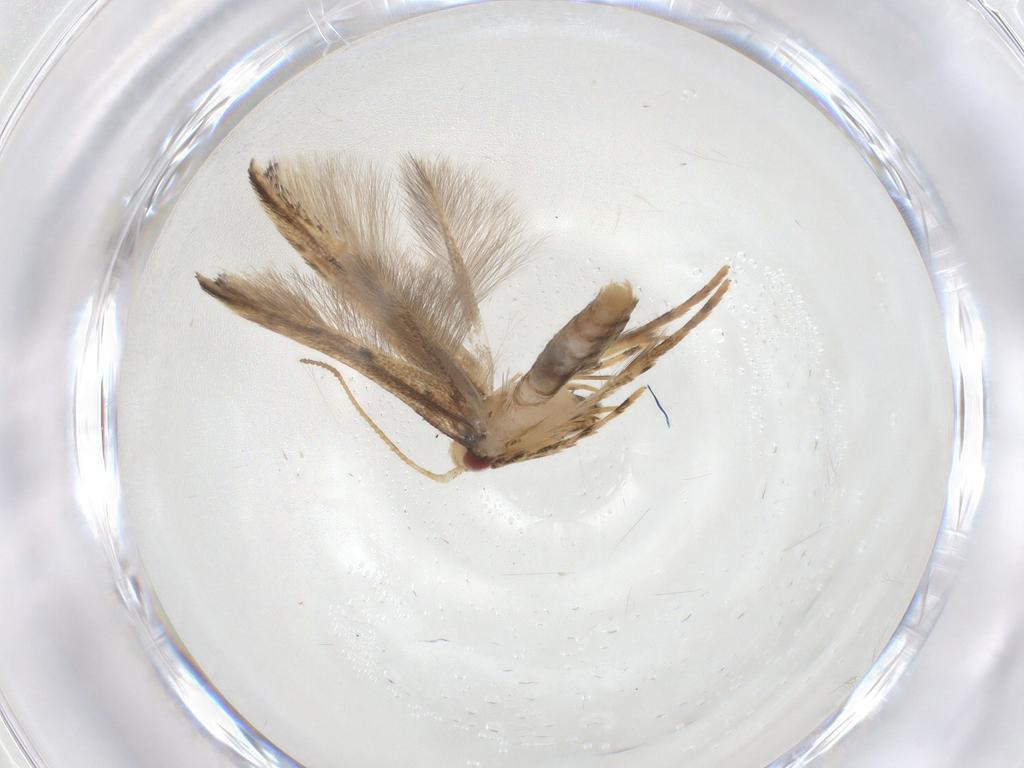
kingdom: Animalia
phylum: Arthropoda
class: Insecta
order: Lepidoptera
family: Cosmopterigidae
